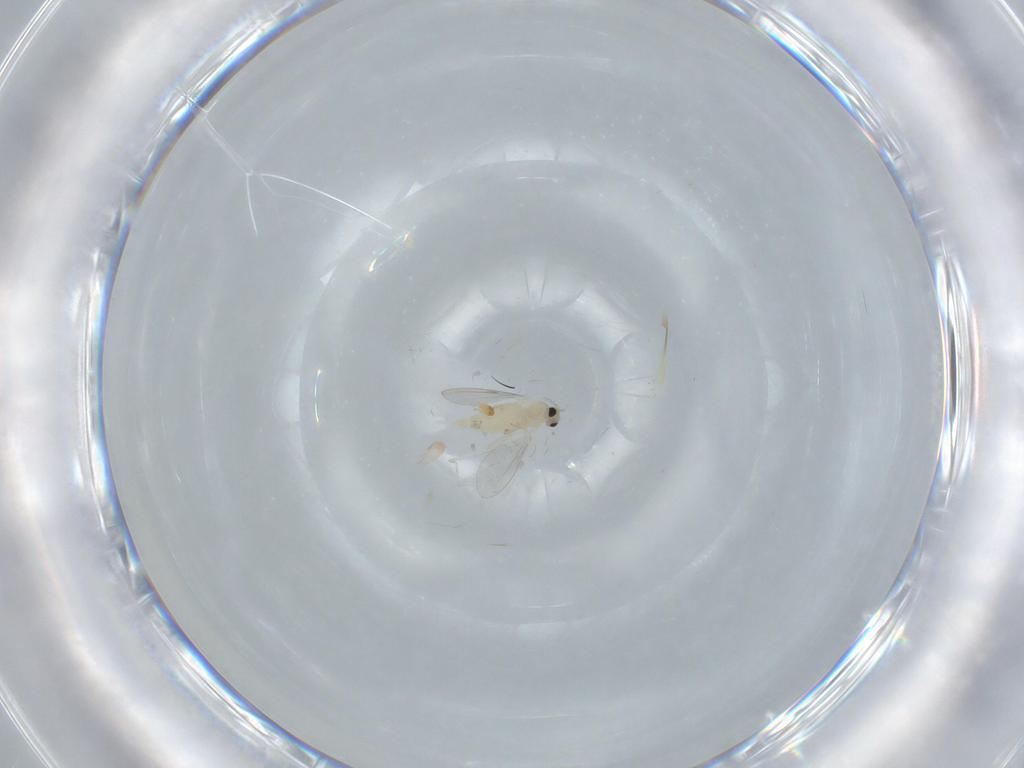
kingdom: Animalia
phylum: Arthropoda
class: Insecta
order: Diptera
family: Cecidomyiidae
